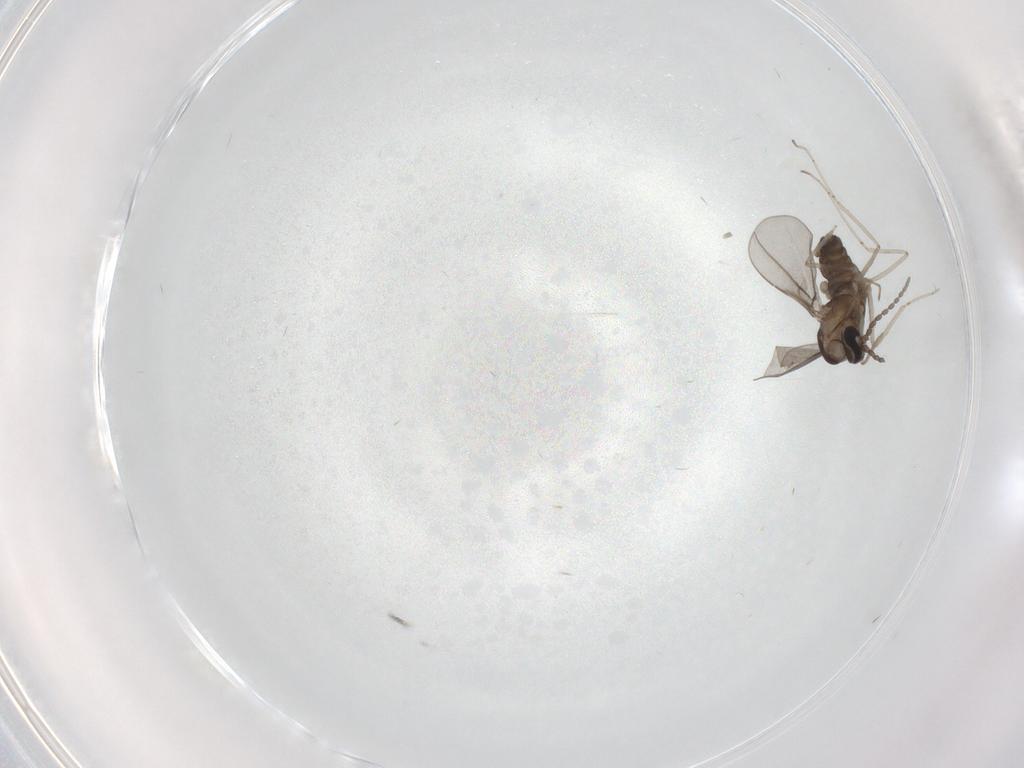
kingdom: Animalia
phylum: Arthropoda
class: Insecta
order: Diptera
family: Cecidomyiidae
